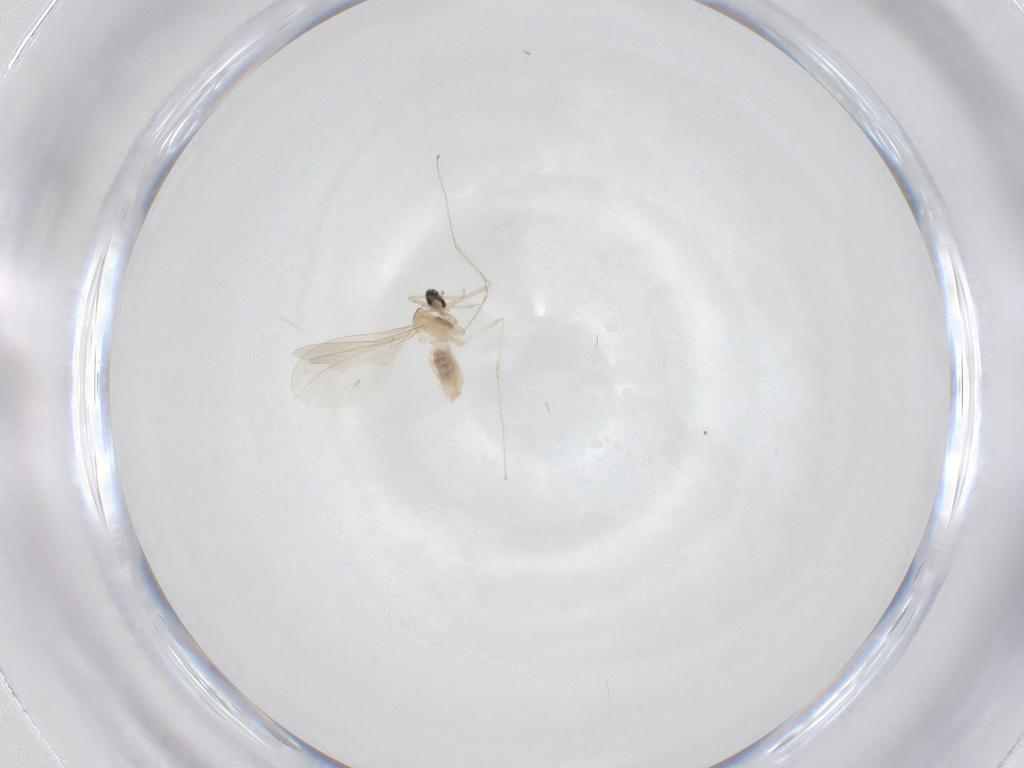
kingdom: Animalia
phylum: Arthropoda
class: Insecta
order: Diptera
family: Cecidomyiidae
